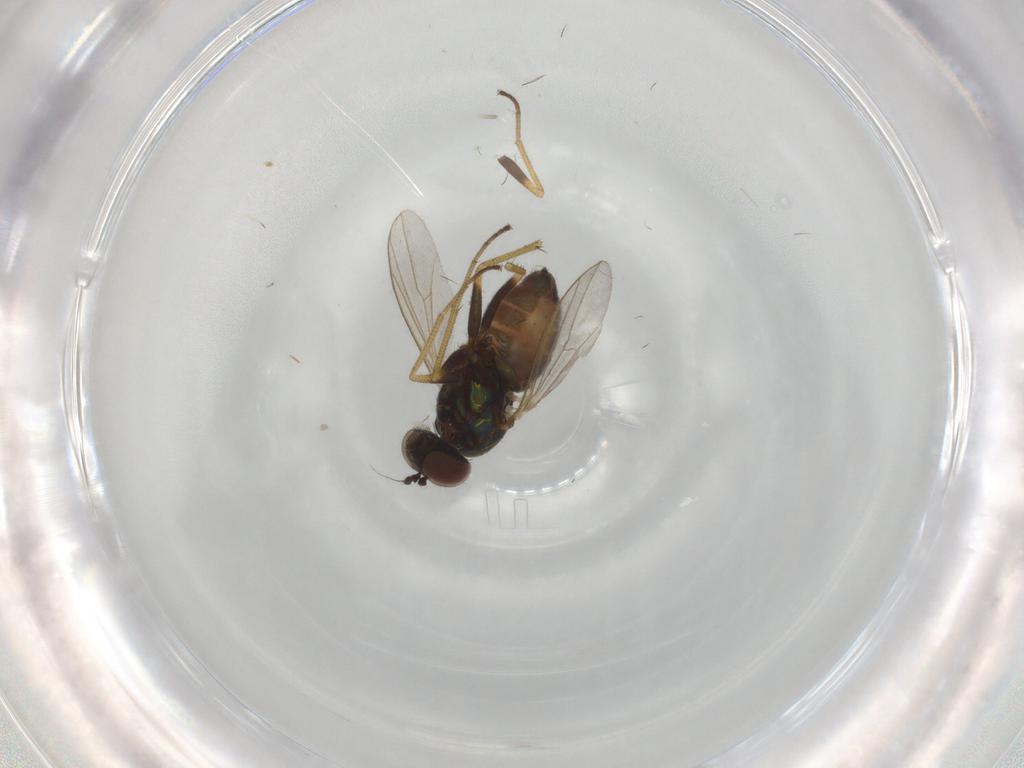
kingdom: Animalia
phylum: Arthropoda
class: Insecta
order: Diptera
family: Dolichopodidae
